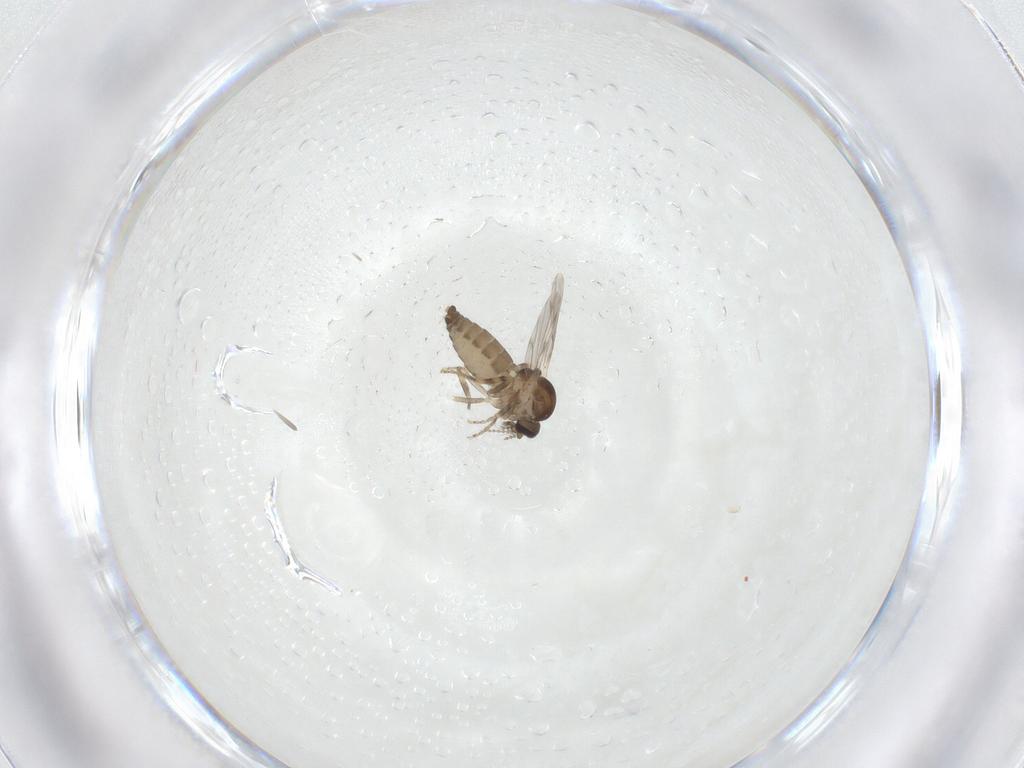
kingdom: Animalia
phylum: Arthropoda
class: Insecta
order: Diptera
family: Ceratopogonidae
